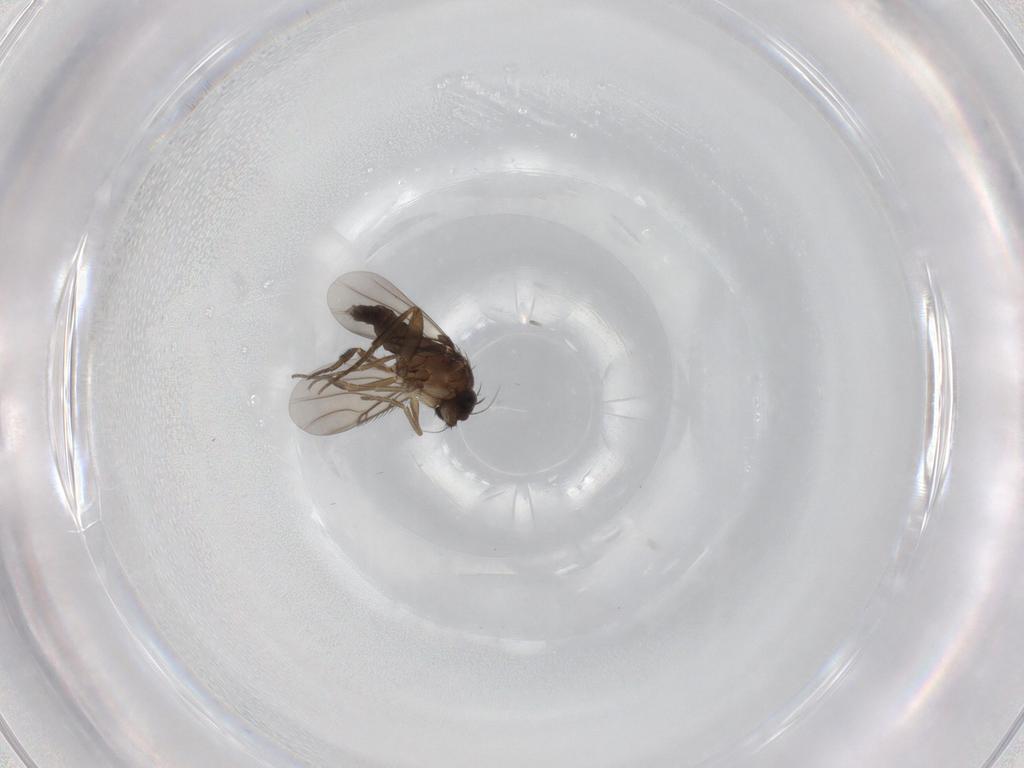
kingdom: Animalia
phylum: Arthropoda
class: Insecta
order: Diptera
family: Phoridae
